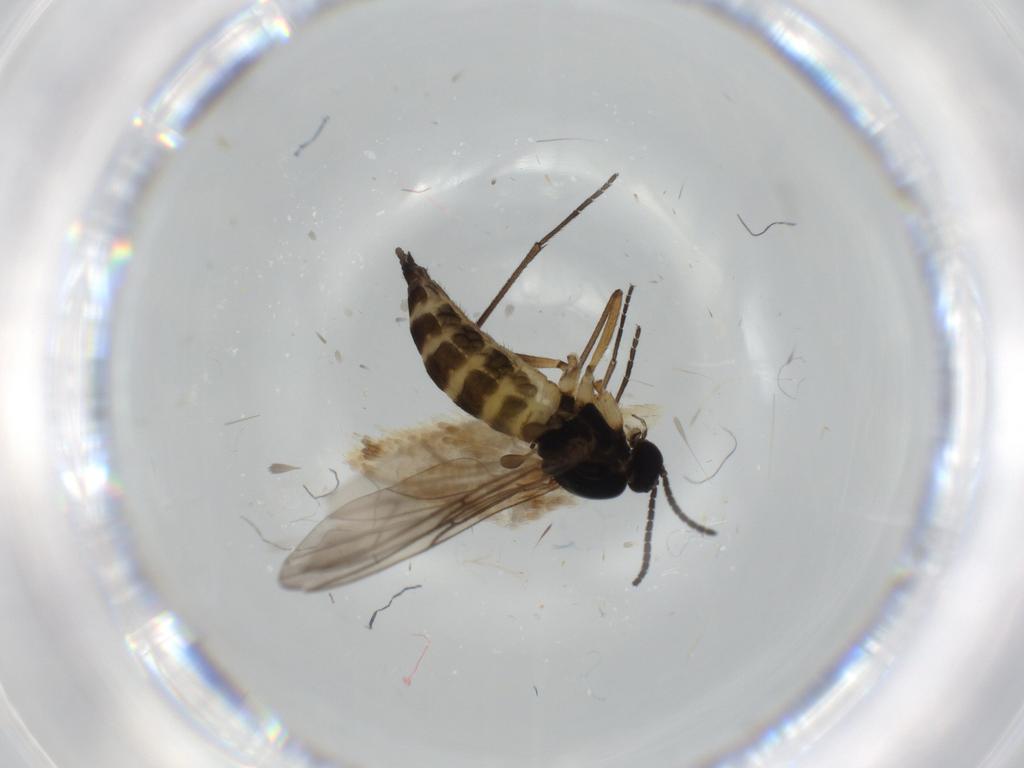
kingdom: Animalia
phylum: Arthropoda
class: Insecta
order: Diptera
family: Sciaridae
